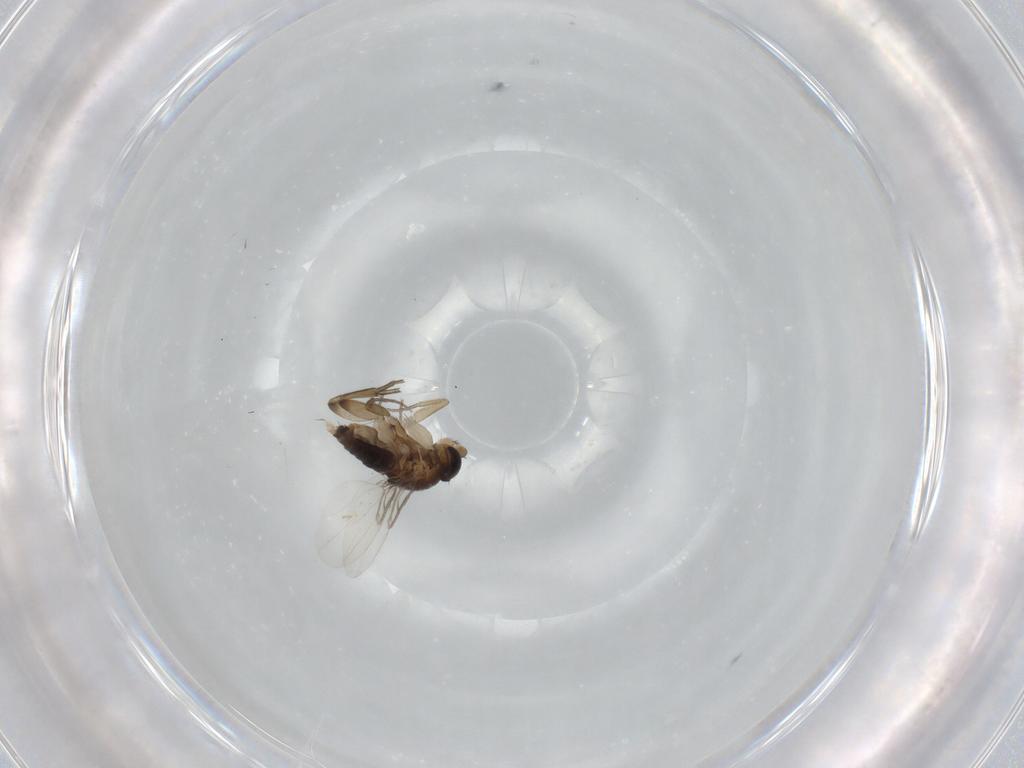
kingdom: Animalia
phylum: Arthropoda
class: Insecta
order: Diptera
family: Phoridae
